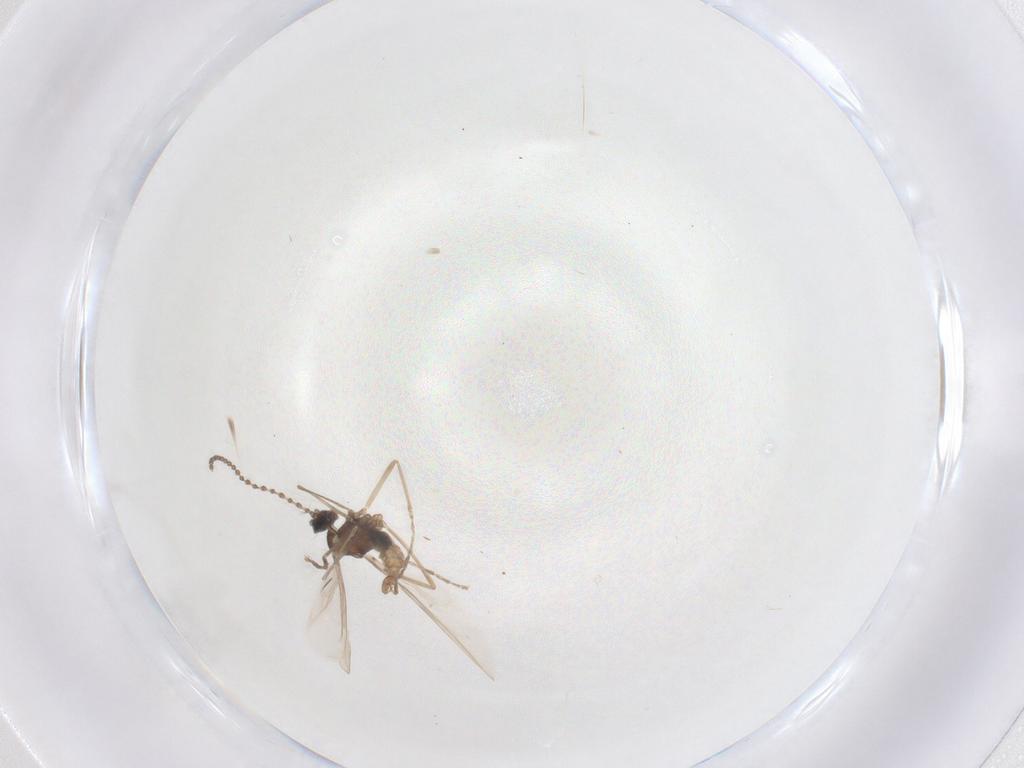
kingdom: Animalia
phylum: Arthropoda
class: Insecta
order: Diptera
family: Cecidomyiidae
